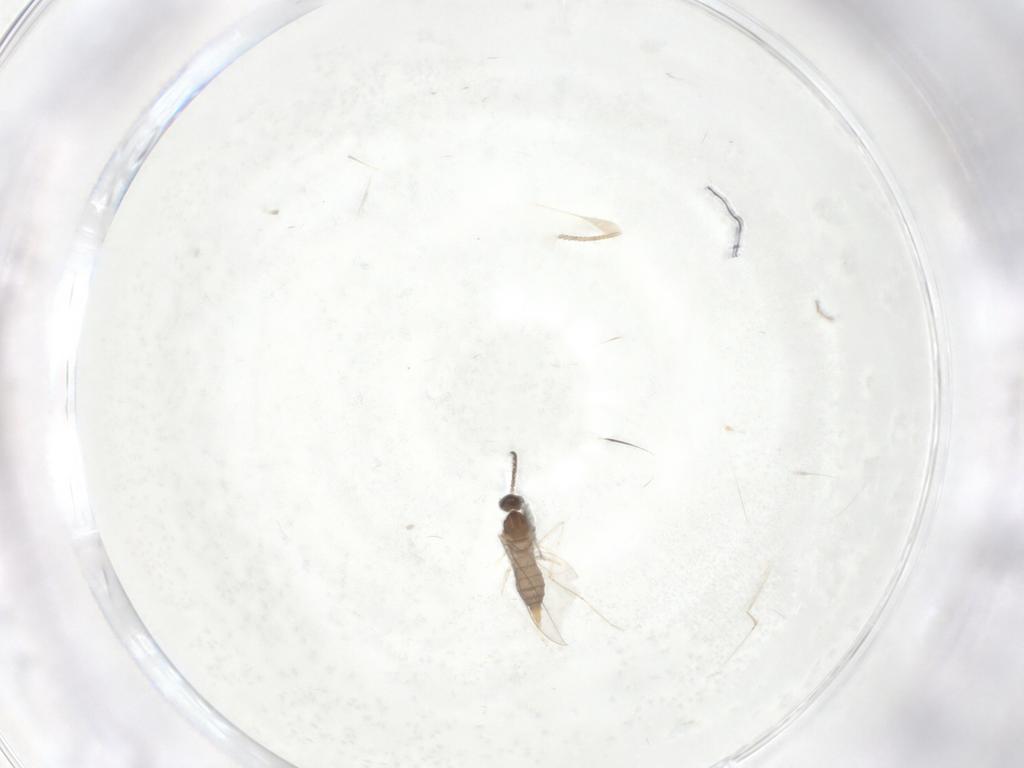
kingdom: Animalia
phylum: Arthropoda
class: Insecta
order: Diptera
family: Cecidomyiidae
